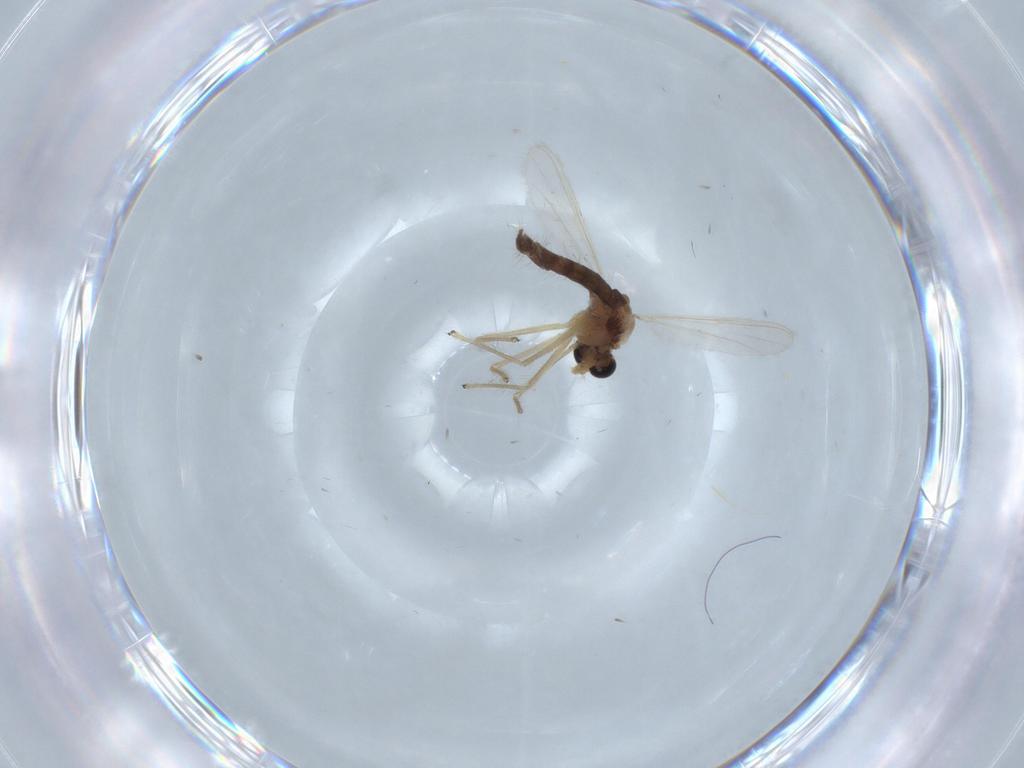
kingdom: Animalia
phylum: Arthropoda
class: Insecta
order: Diptera
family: Chironomidae
